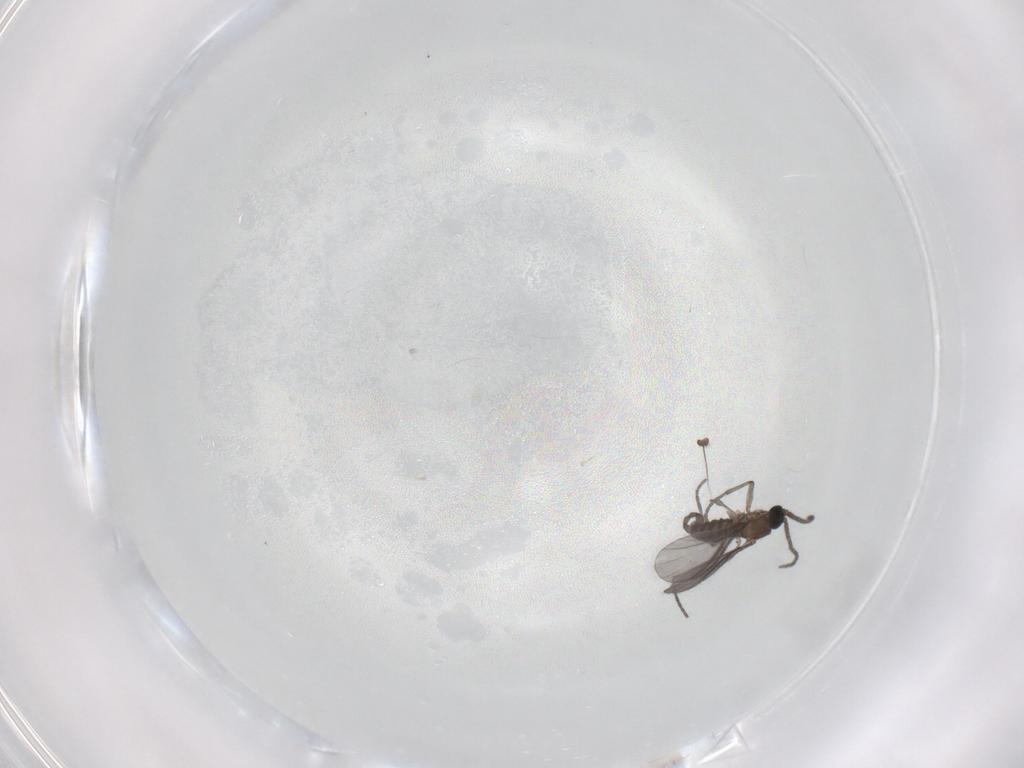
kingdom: Animalia
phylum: Arthropoda
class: Insecta
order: Diptera
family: Sciaridae
